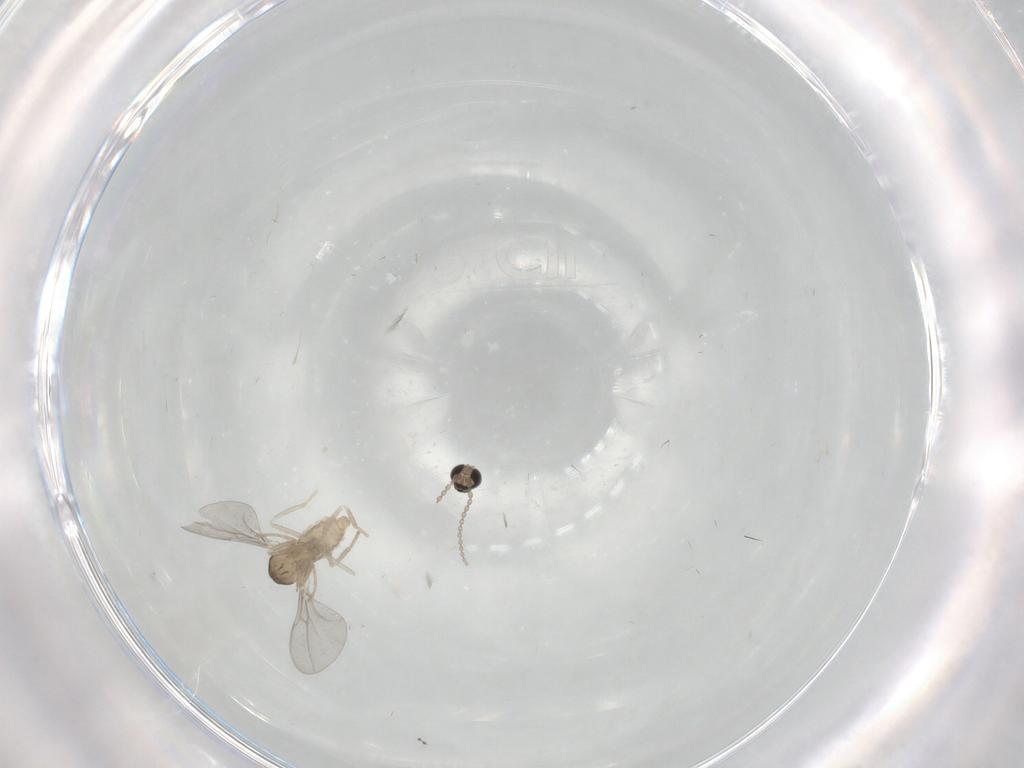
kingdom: Animalia
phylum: Arthropoda
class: Insecta
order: Diptera
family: Cecidomyiidae
